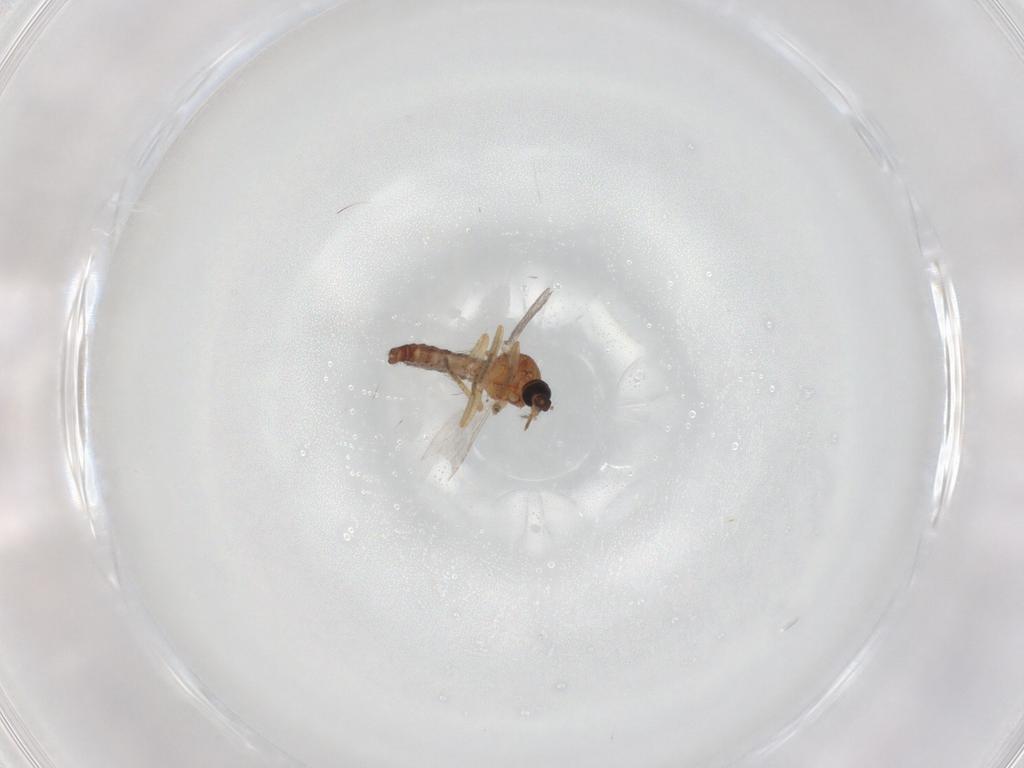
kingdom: Animalia
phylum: Arthropoda
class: Insecta
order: Diptera
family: Ceratopogonidae
